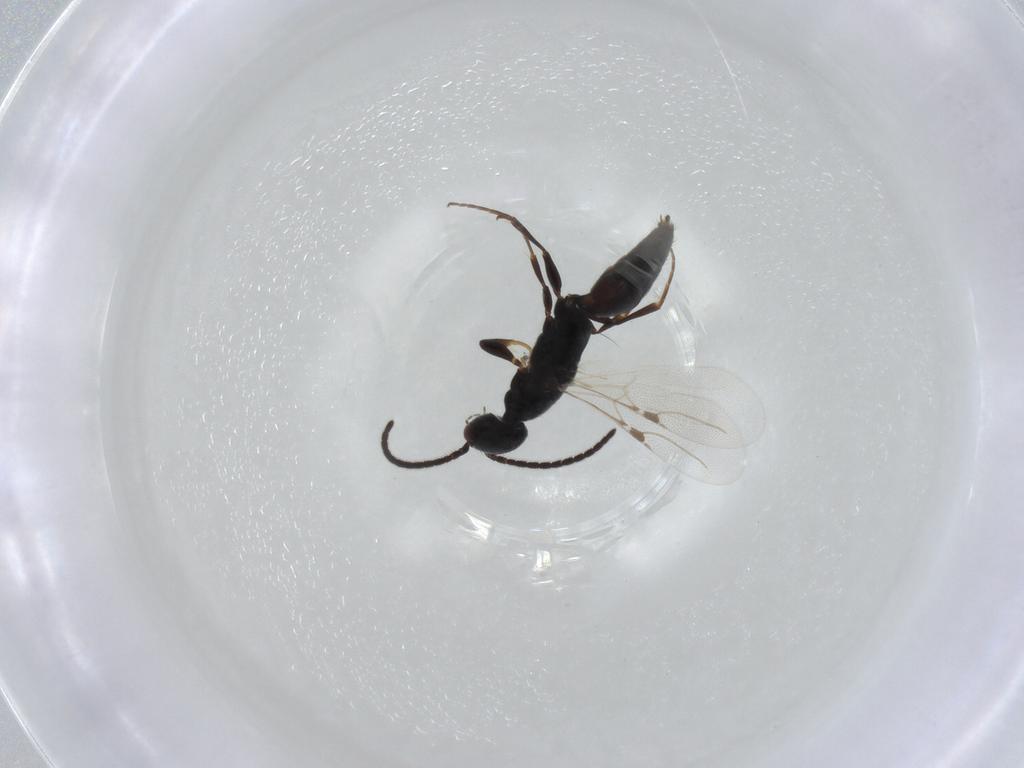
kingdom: Animalia
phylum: Arthropoda
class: Insecta
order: Hymenoptera
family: Bethylidae
